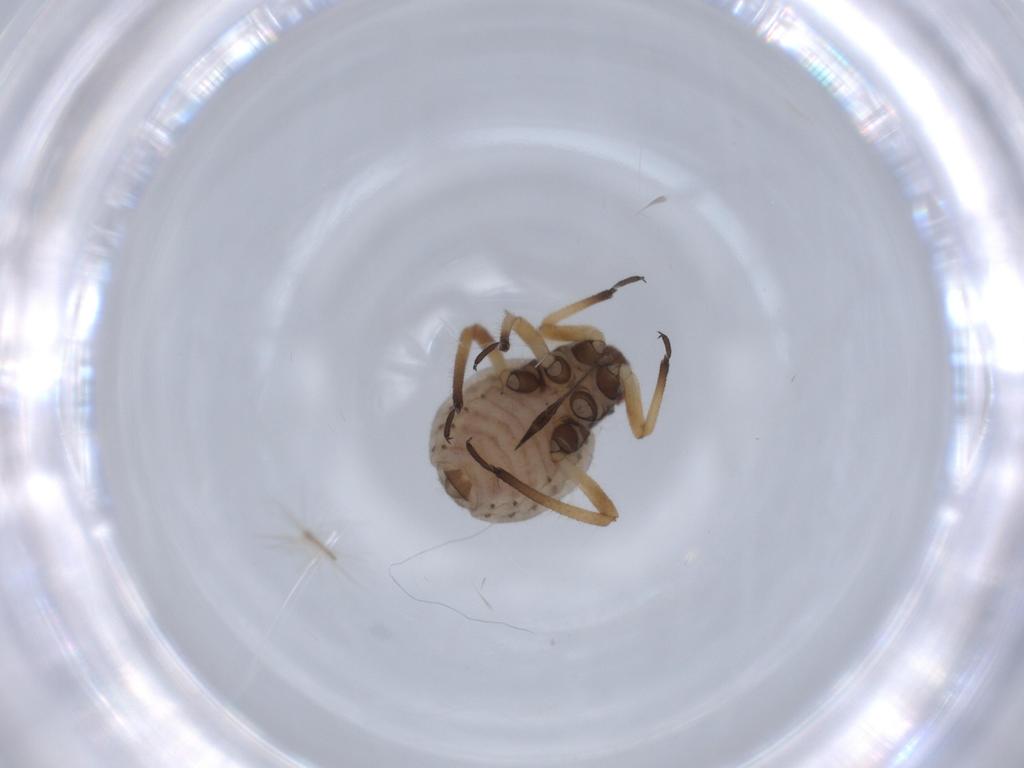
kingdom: Animalia
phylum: Arthropoda
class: Insecta
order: Hemiptera
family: Aphididae
